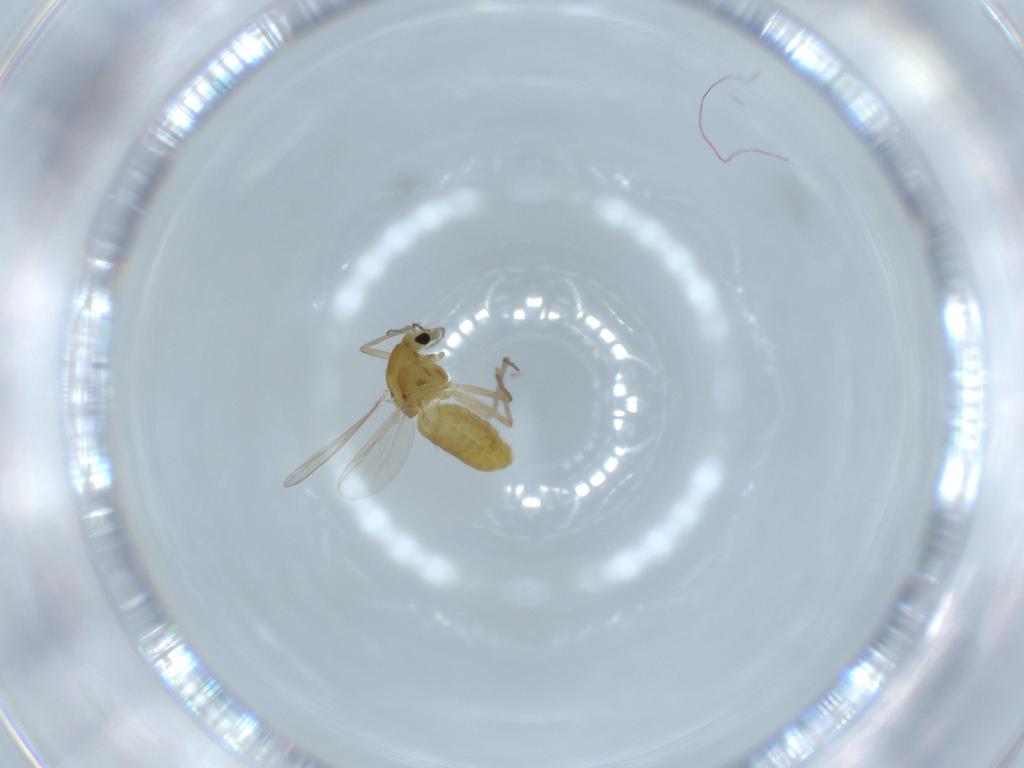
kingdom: Animalia
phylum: Arthropoda
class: Insecta
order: Diptera
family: Chironomidae
